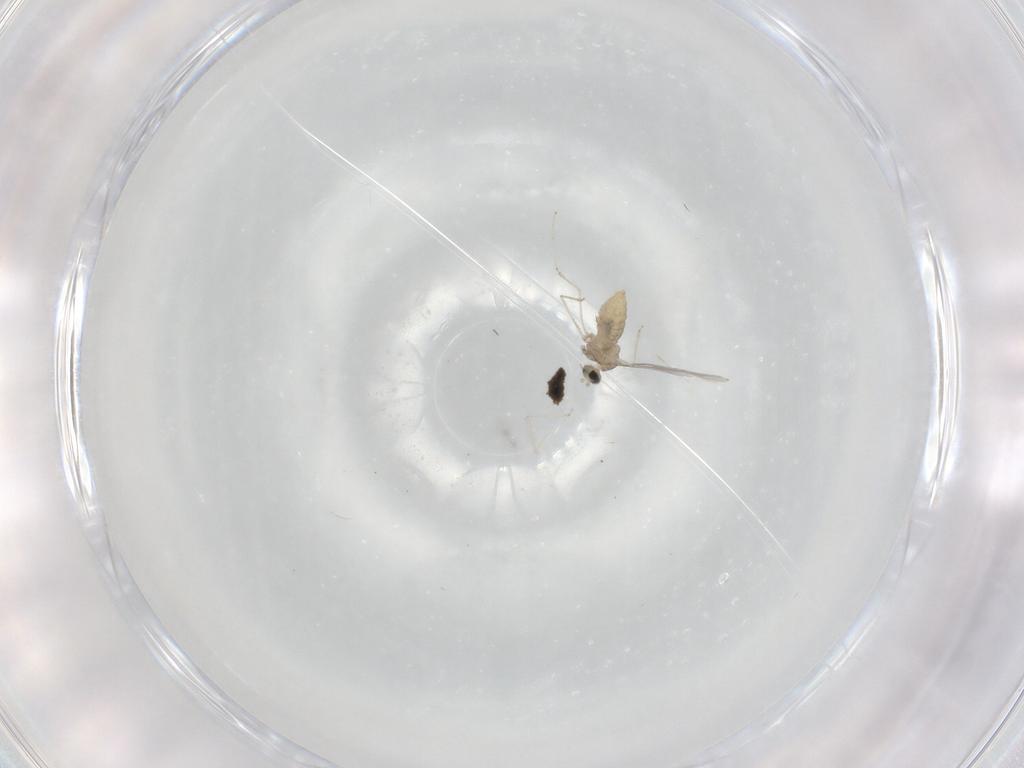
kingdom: Animalia
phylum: Arthropoda
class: Insecta
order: Diptera
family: Cecidomyiidae
